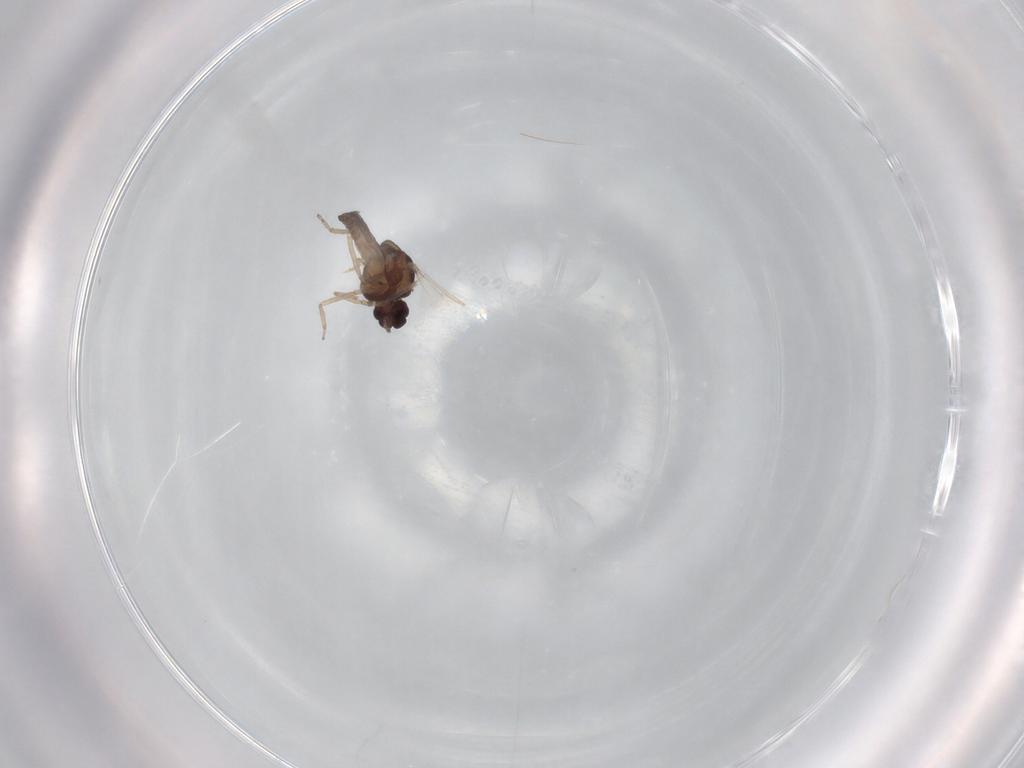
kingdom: Animalia
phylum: Arthropoda
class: Insecta
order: Diptera
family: Ceratopogonidae
